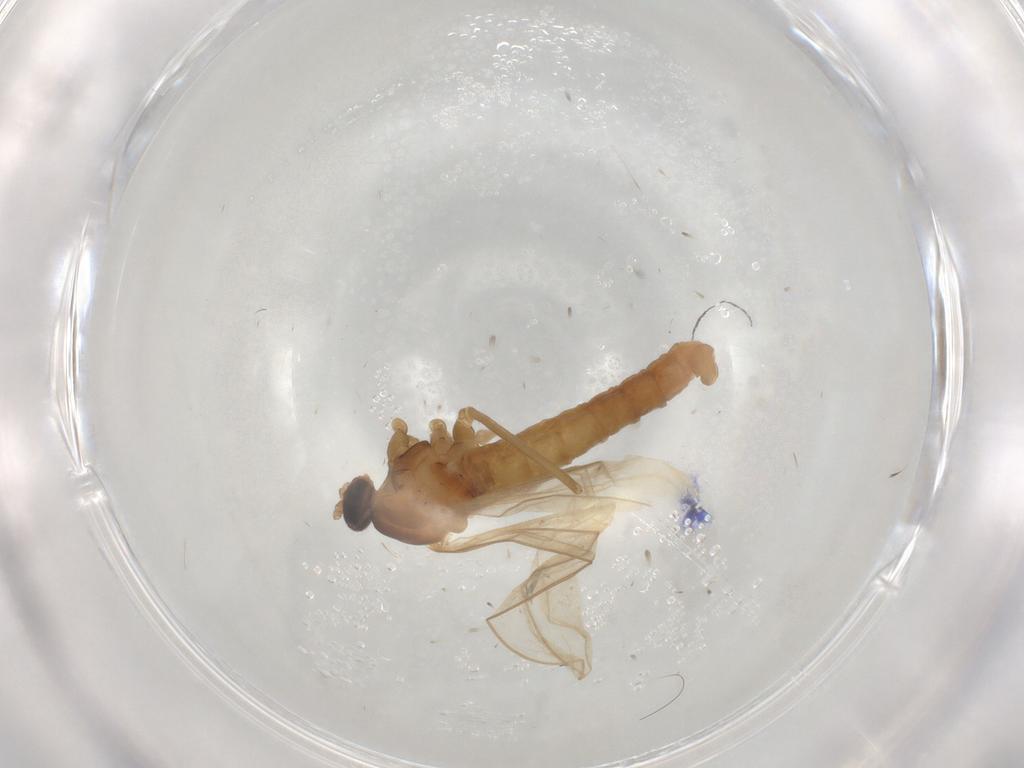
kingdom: Animalia
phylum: Arthropoda
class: Insecta
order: Diptera
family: Cecidomyiidae
